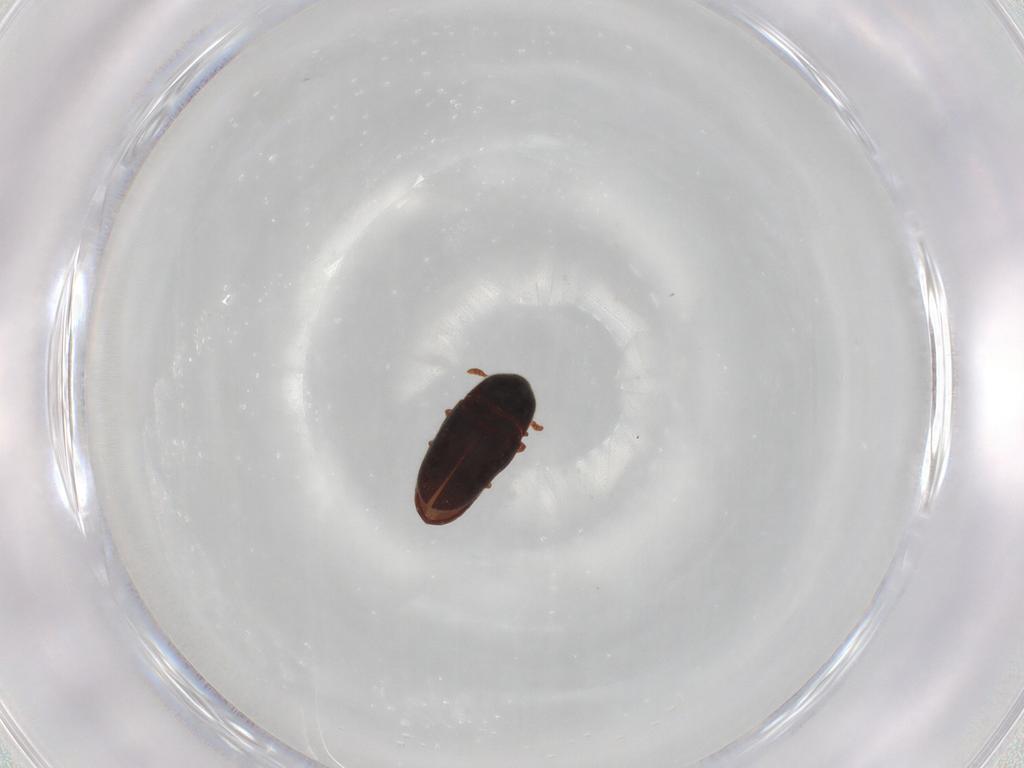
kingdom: Animalia
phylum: Arthropoda
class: Insecta
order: Coleoptera
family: Throscidae
